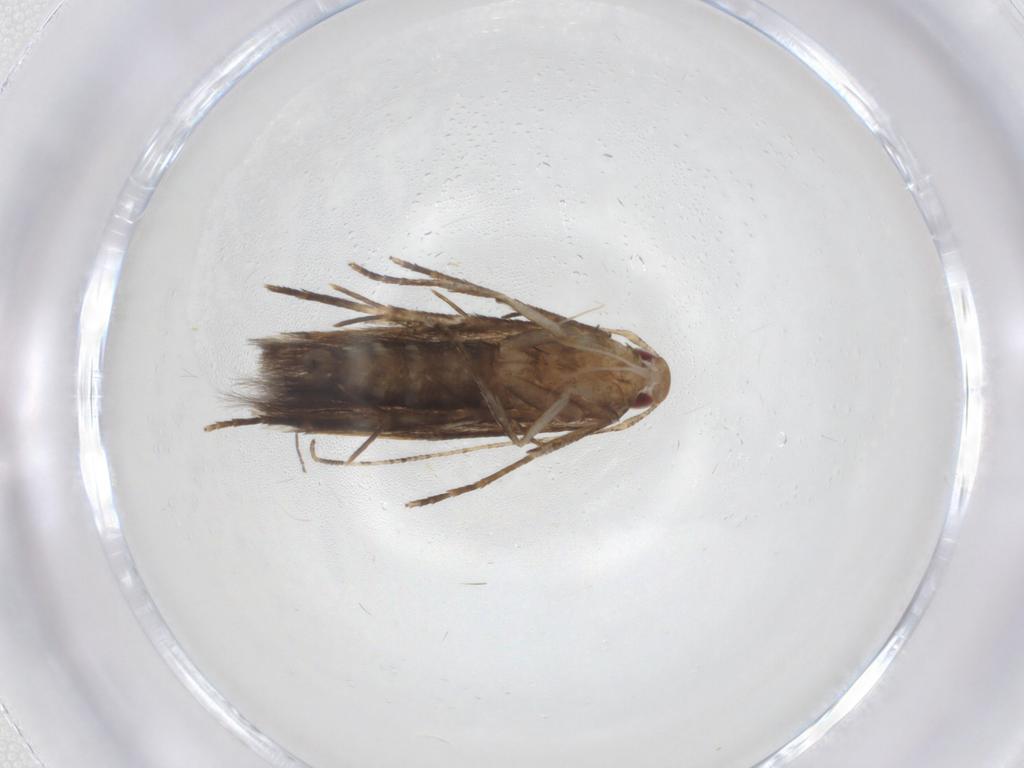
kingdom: Animalia
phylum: Arthropoda
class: Insecta
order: Lepidoptera
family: Cosmopterigidae
